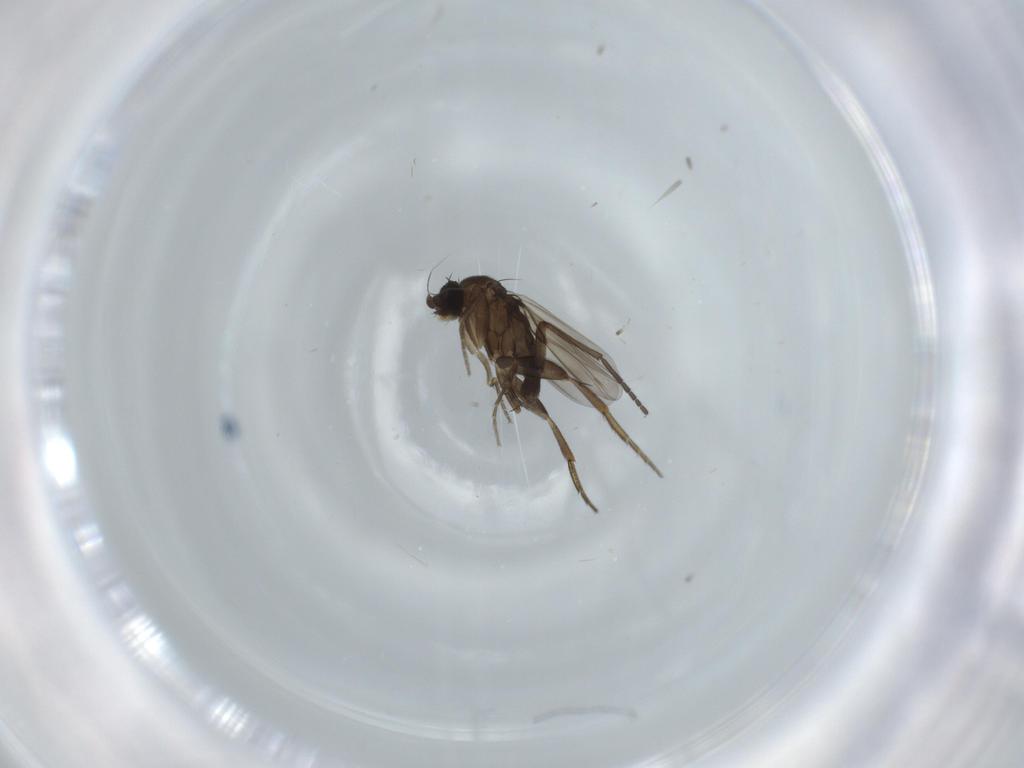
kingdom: Animalia
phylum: Arthropoda
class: Insecta
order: Diptera
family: Sciaridae
